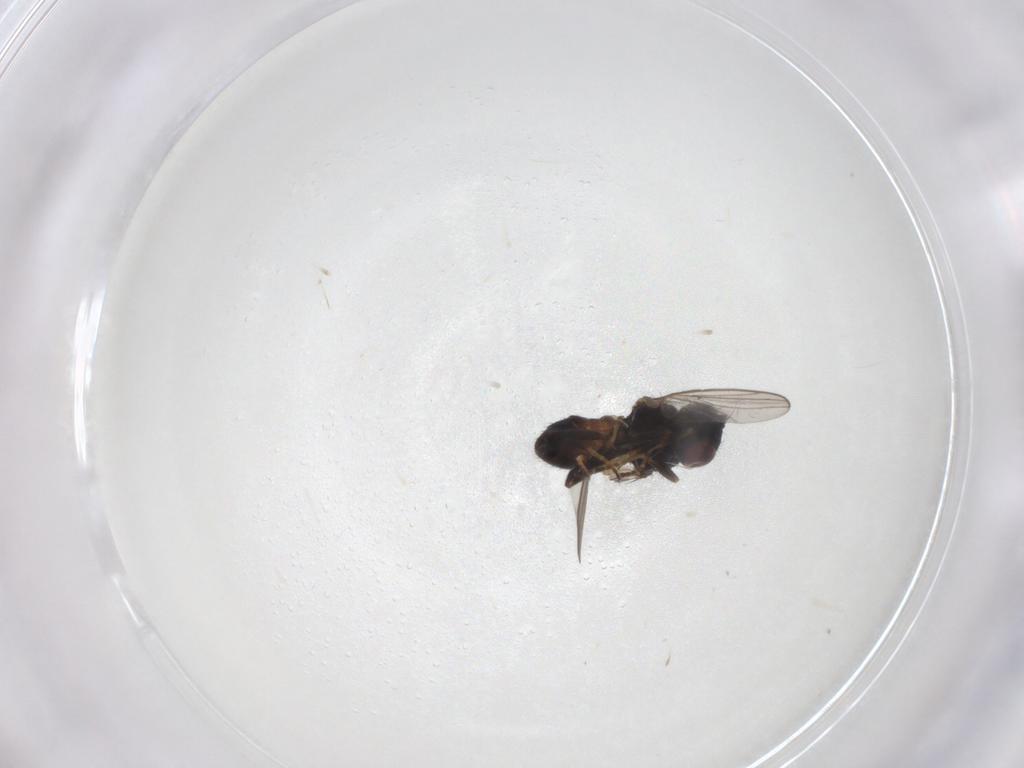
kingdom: Animalia
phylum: Arthropoda
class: Insecta
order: Diptera
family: Chloropidae
